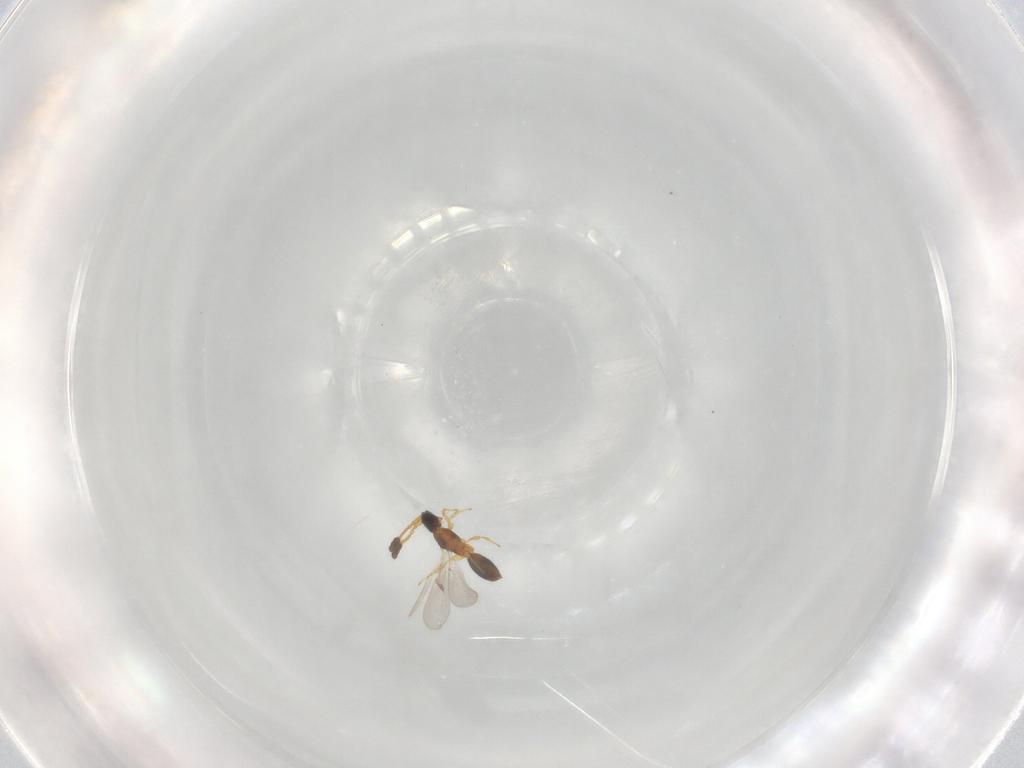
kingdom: Animalia
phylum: Arthropoda
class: Insecta
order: Hymenoptera
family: Diapriidae
